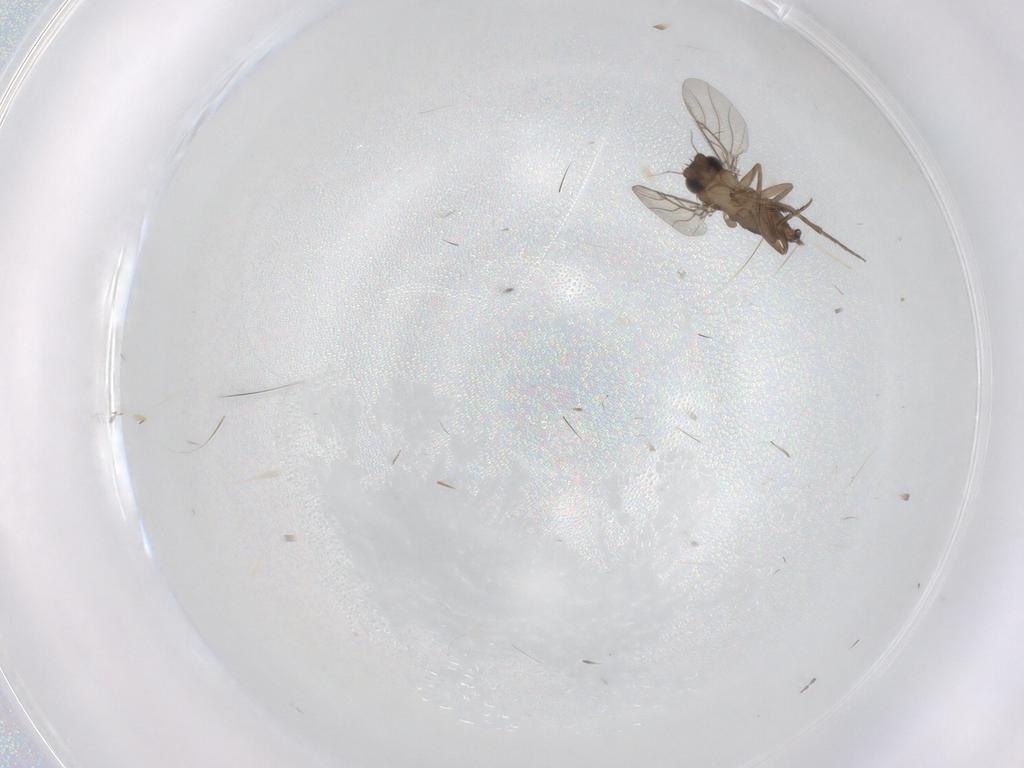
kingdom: Animalia
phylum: Arthropoda
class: Insecta
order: Diptera
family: Phoridae
